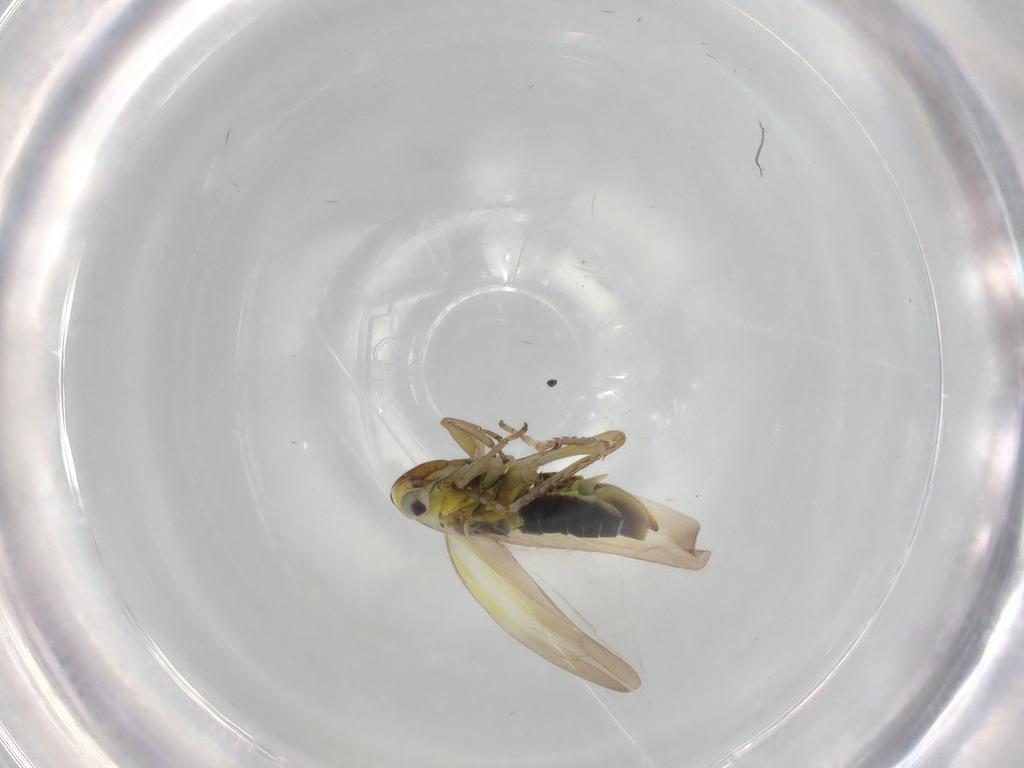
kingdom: Animalia
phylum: Arthropoda
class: Insecta
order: Hemiptera
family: Cicadellidae
